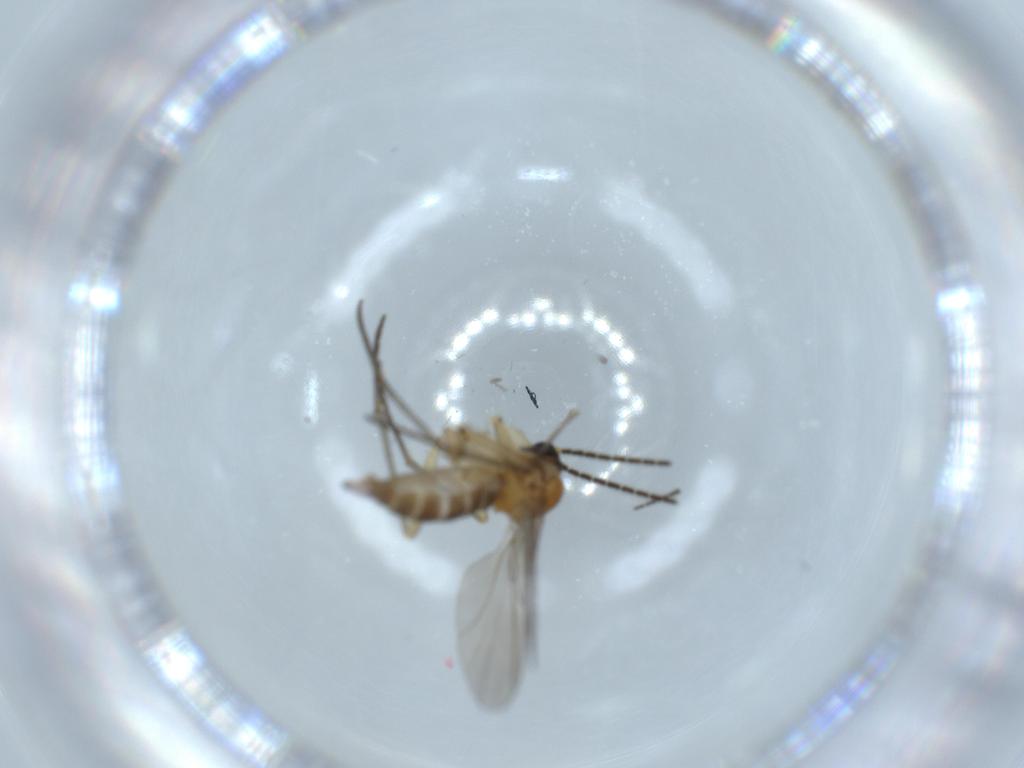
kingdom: Animalia
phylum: Arthropoda
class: Insecta
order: Diptera
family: Sciaridae
